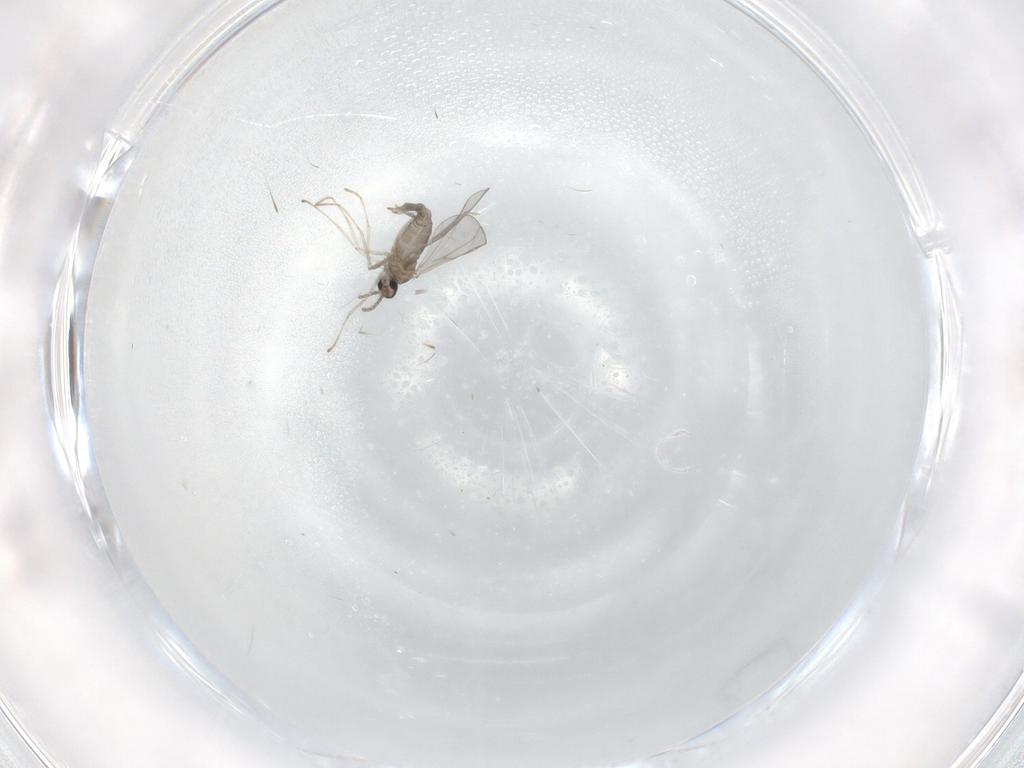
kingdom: Animalia
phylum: Arthropoda
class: Insecta
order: Diptera
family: Cecidomyiidae
